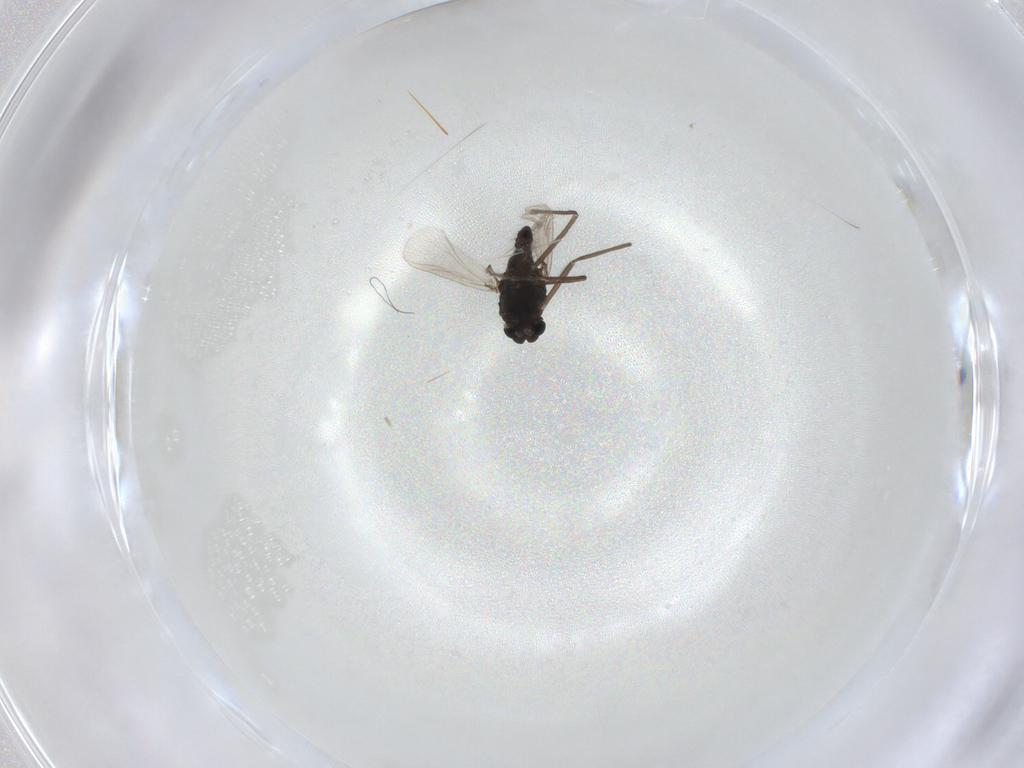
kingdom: Animalia
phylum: Arthropoda
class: Insecta
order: Diptera
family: Chironomidae
